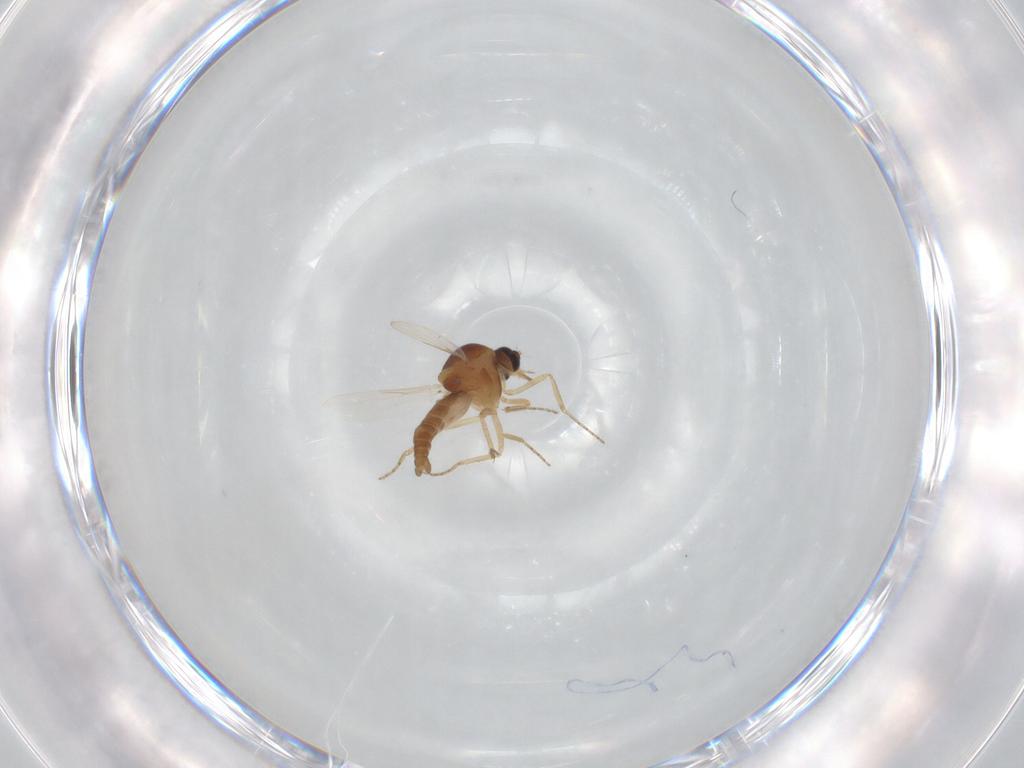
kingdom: Animalia
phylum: Arthropoda
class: Insecta
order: Diptera
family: Ceratopogonidae
